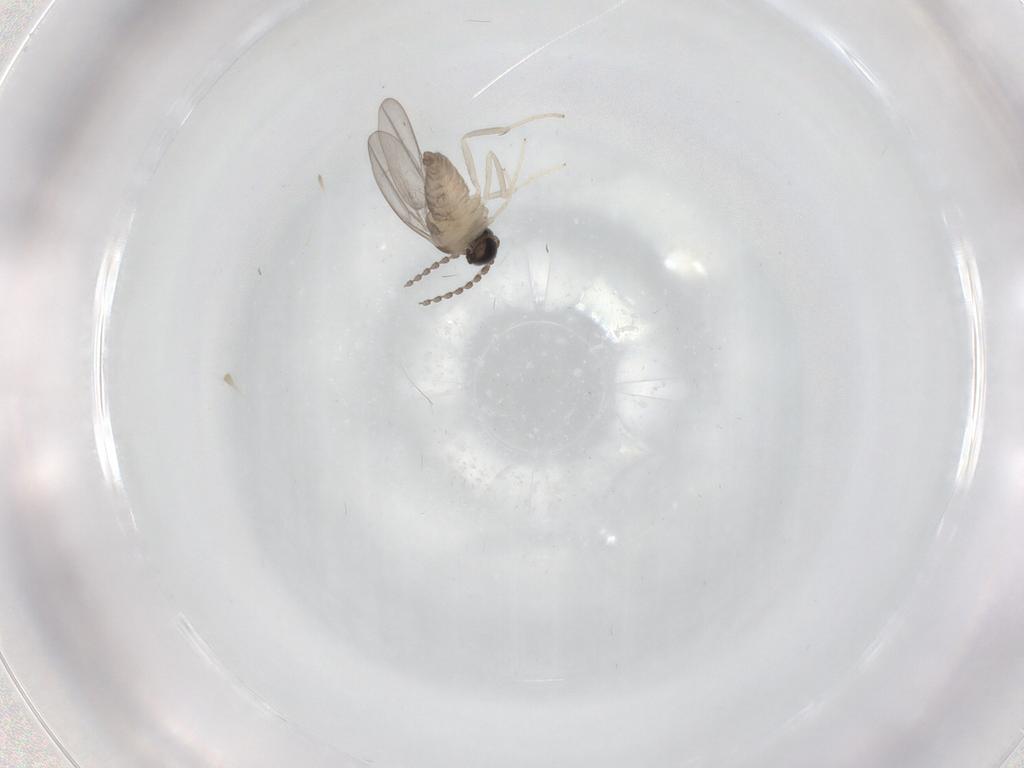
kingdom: Animalia
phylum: Arthropoda
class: Insecta
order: Diptera
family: Cecidomyiidae
